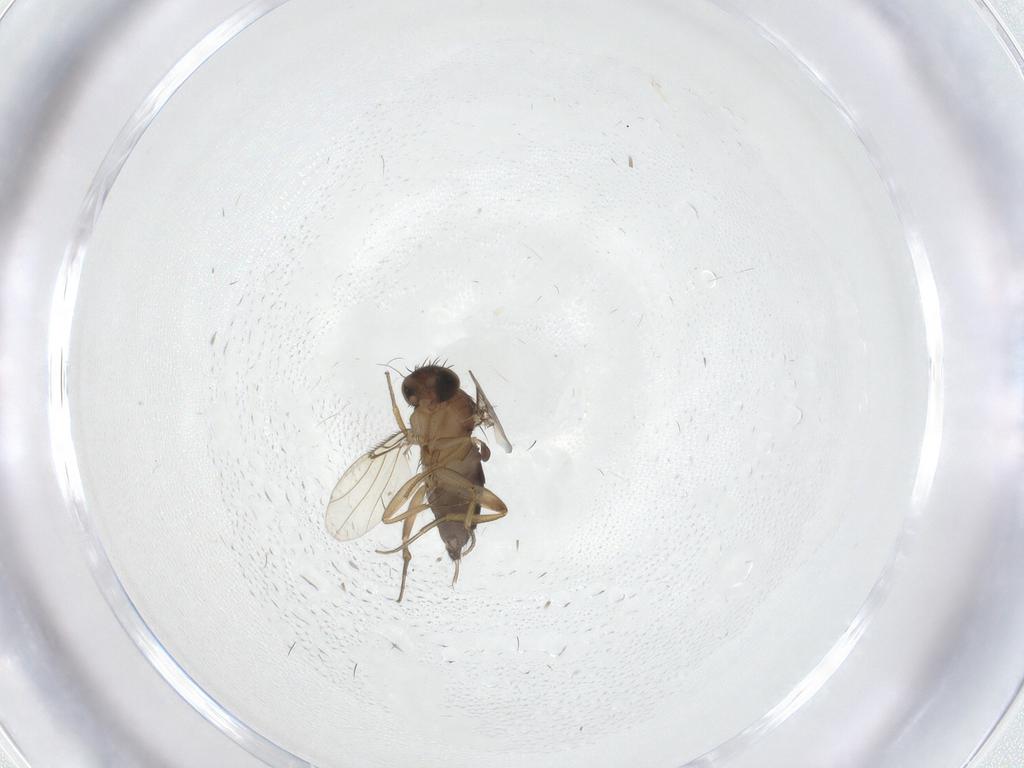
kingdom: Animalia
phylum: Arthropoda
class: Insecta
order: Diptera
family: Phoridae
